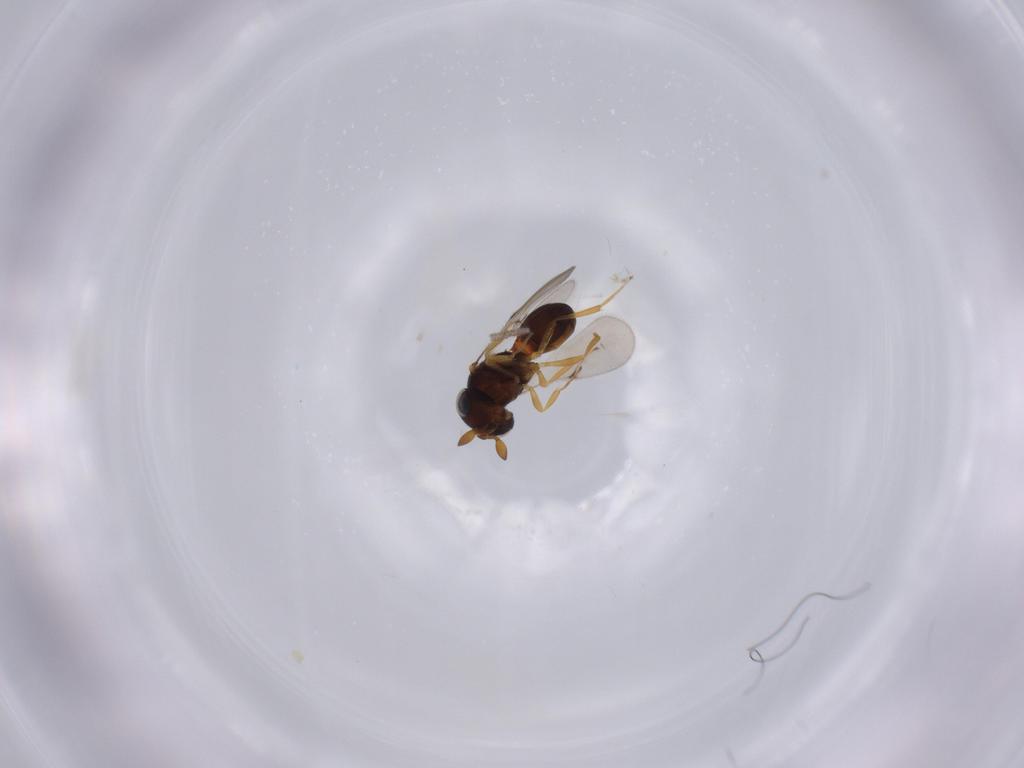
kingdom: Animalia
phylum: Arthropoda
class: Insecta
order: Hymenoptera
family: Scelionidae
